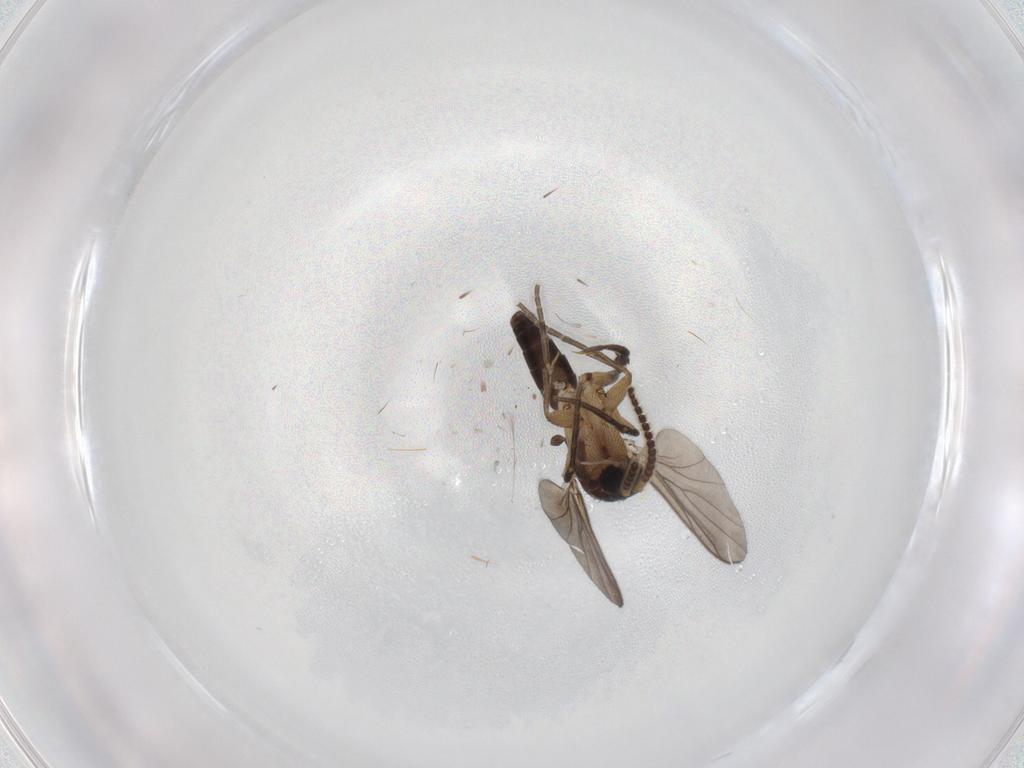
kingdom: Animalia
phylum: Arthropoda
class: Insecta
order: Diptera
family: Mycetophilidae
